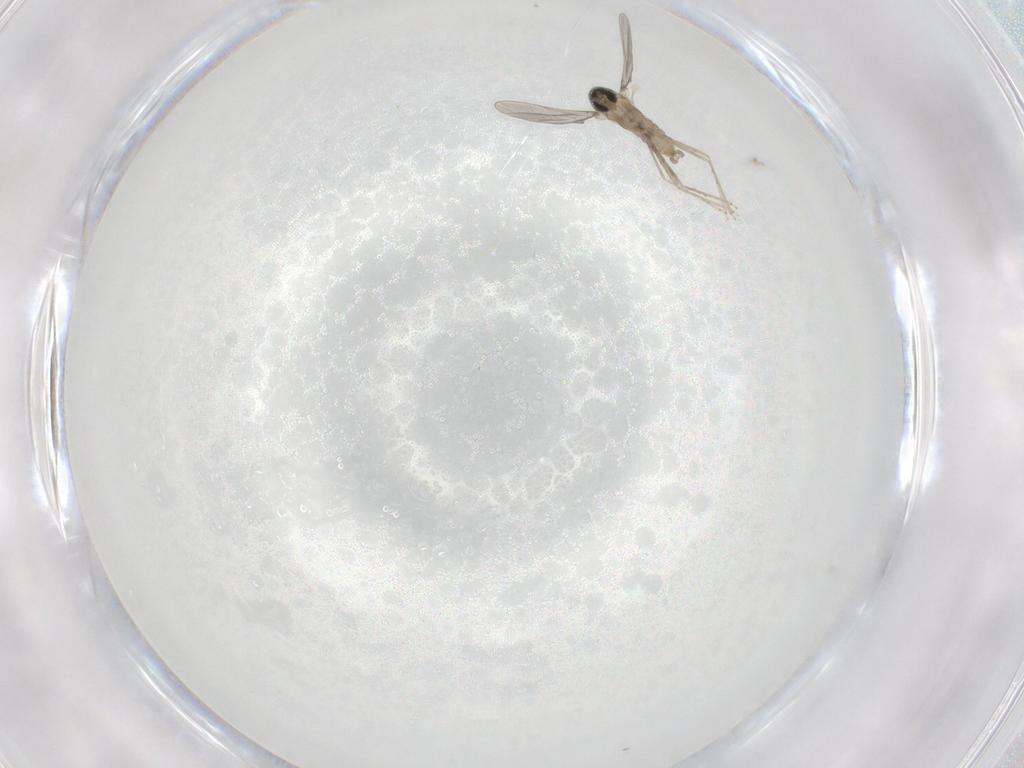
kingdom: Animalia
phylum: Arthropoda
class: Insecta
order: Diptera
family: Cecidomyiidae
